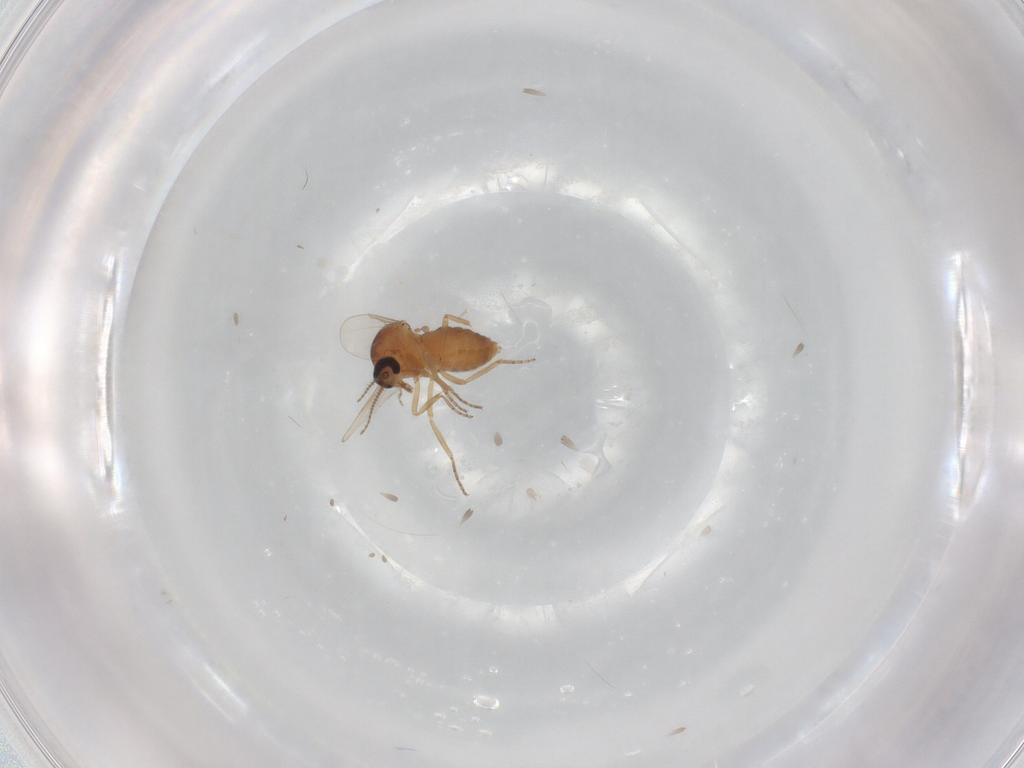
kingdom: Animalia
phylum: Arthropoda
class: Insecta
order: Diptera
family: Ceratopogonidae
